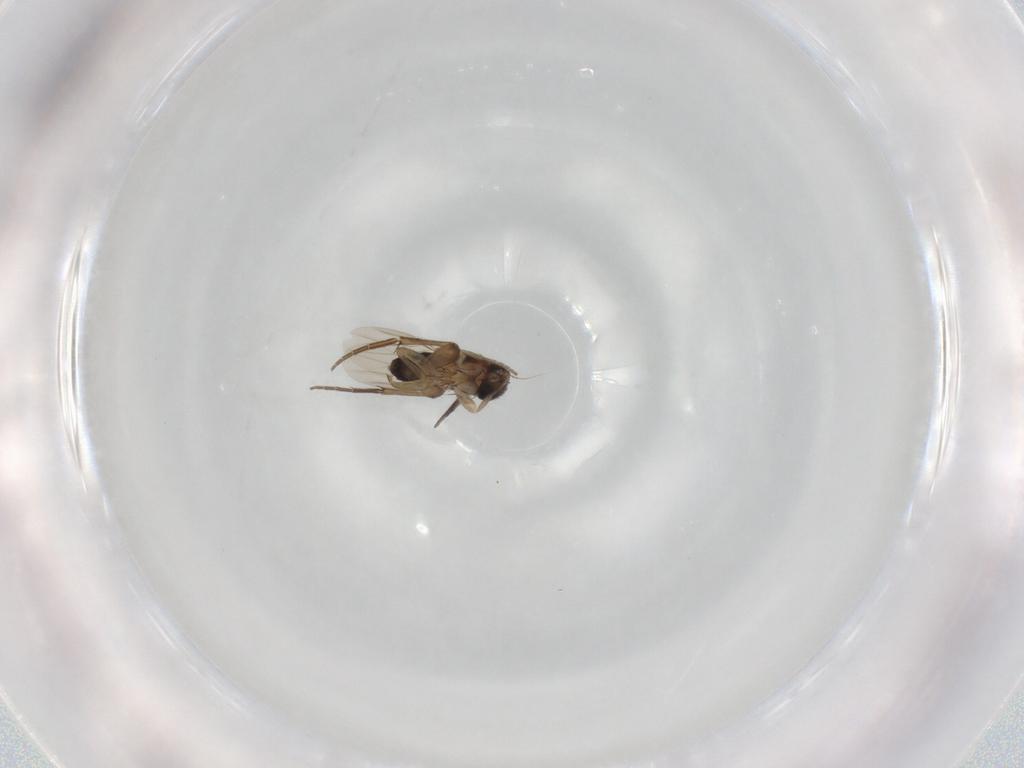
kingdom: Animalia
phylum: Arthropoda
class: Insecta
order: Diptera
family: Phoridae
